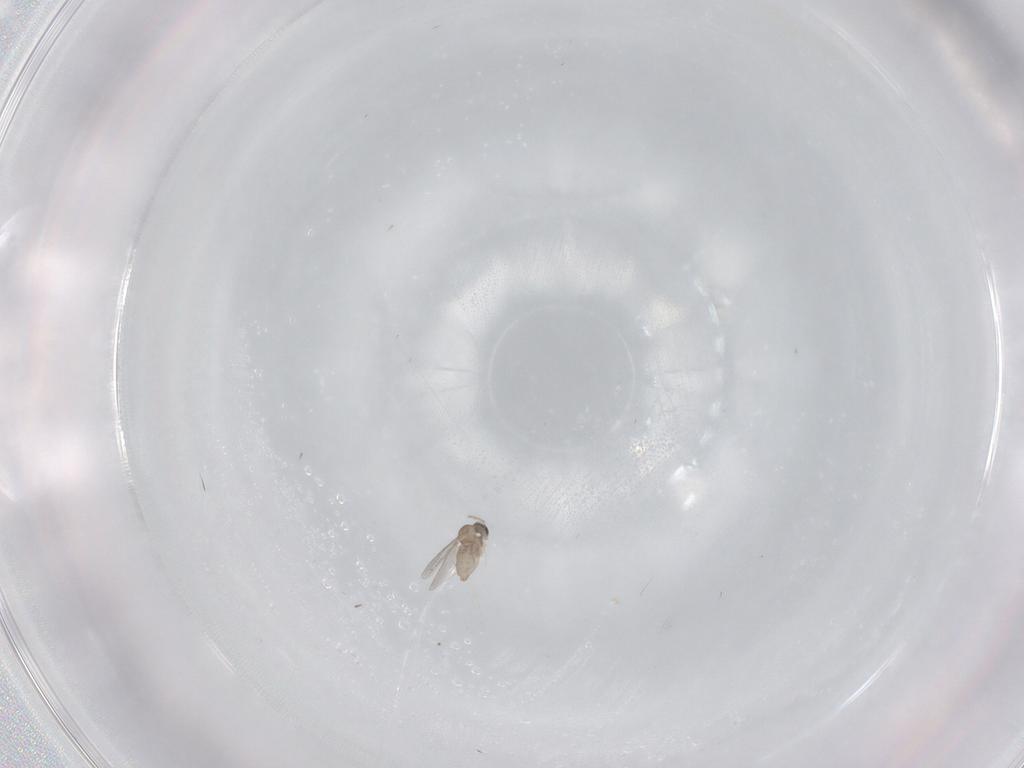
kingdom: Animalia
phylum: Arthropoda
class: Insecta
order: Diptera
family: Cecidomyiidae
